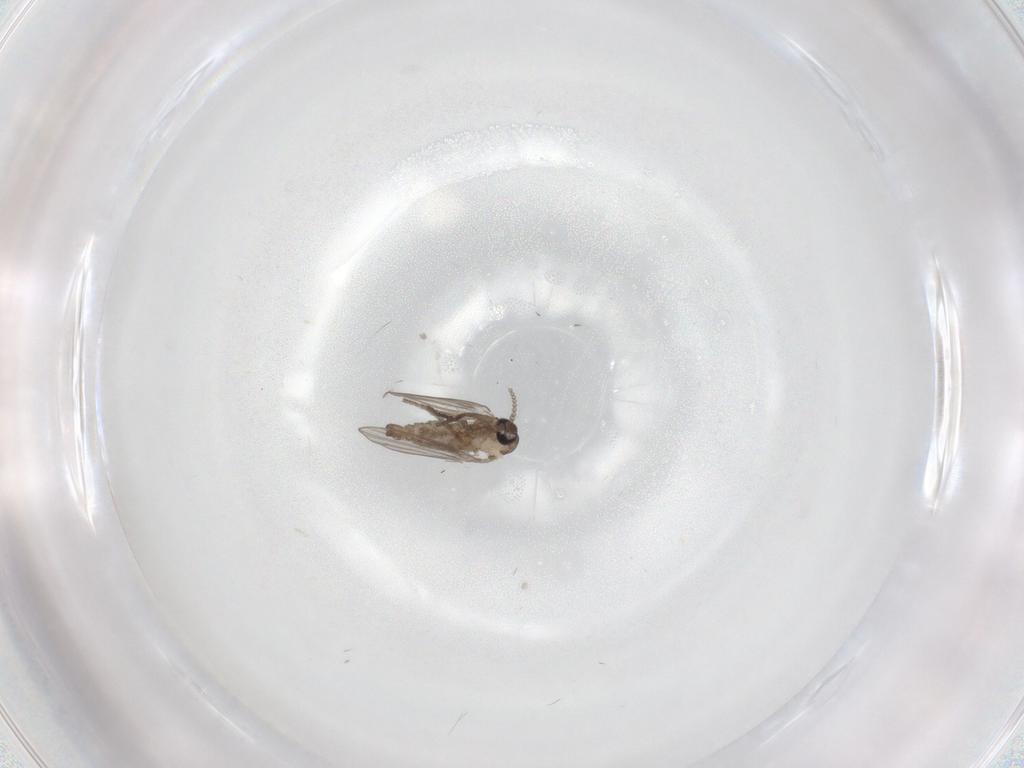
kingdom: Animalia
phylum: Arthropoda
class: Insecta
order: Diptera
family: Psychodidae
